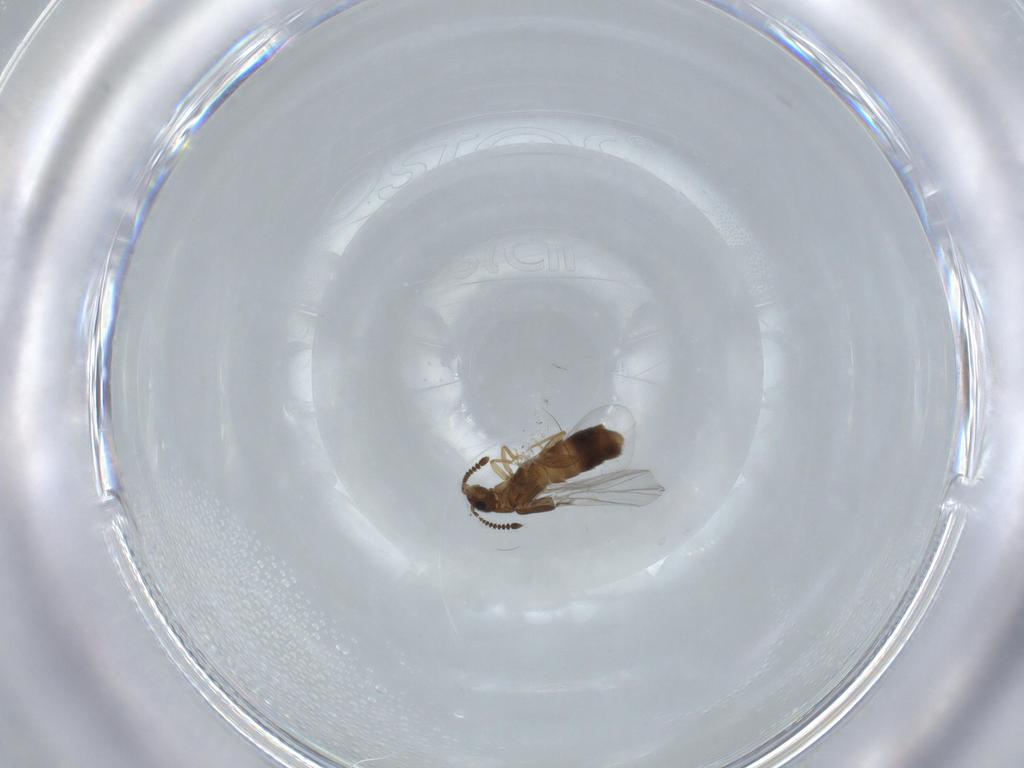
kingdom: Animalia
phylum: Arthropoda
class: Insecta
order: Coleoptera
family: Staphylinidae
